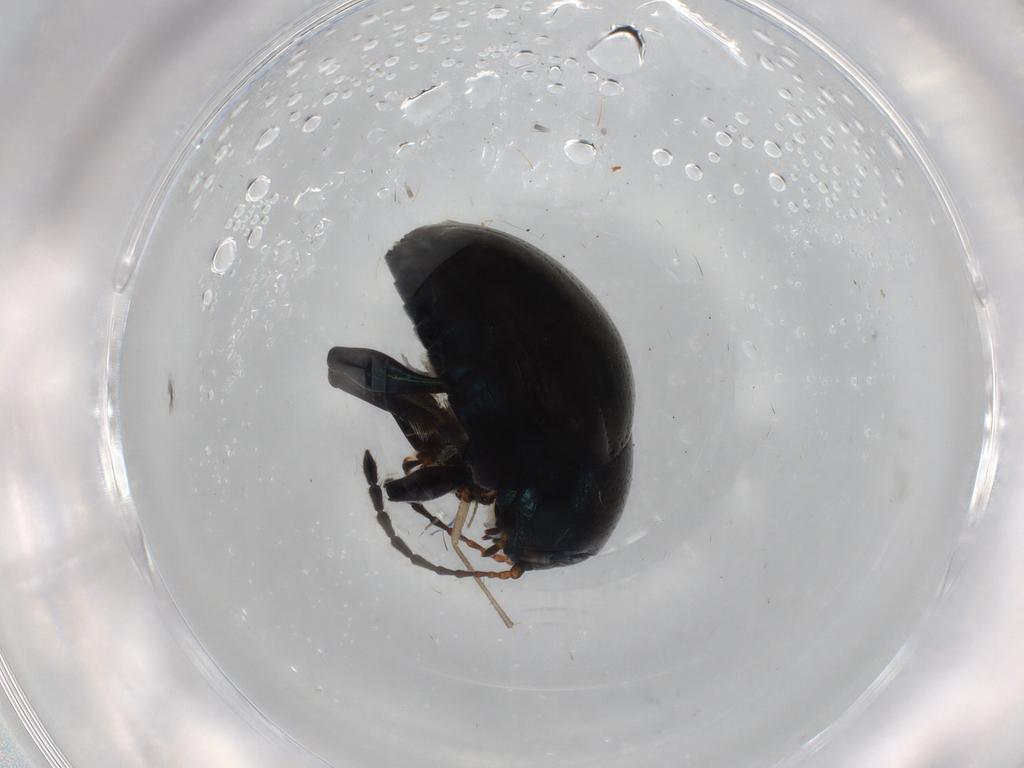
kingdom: Animalia
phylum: Arthropoda
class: Insecta
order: Coleoptera
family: Chrysomelidae
